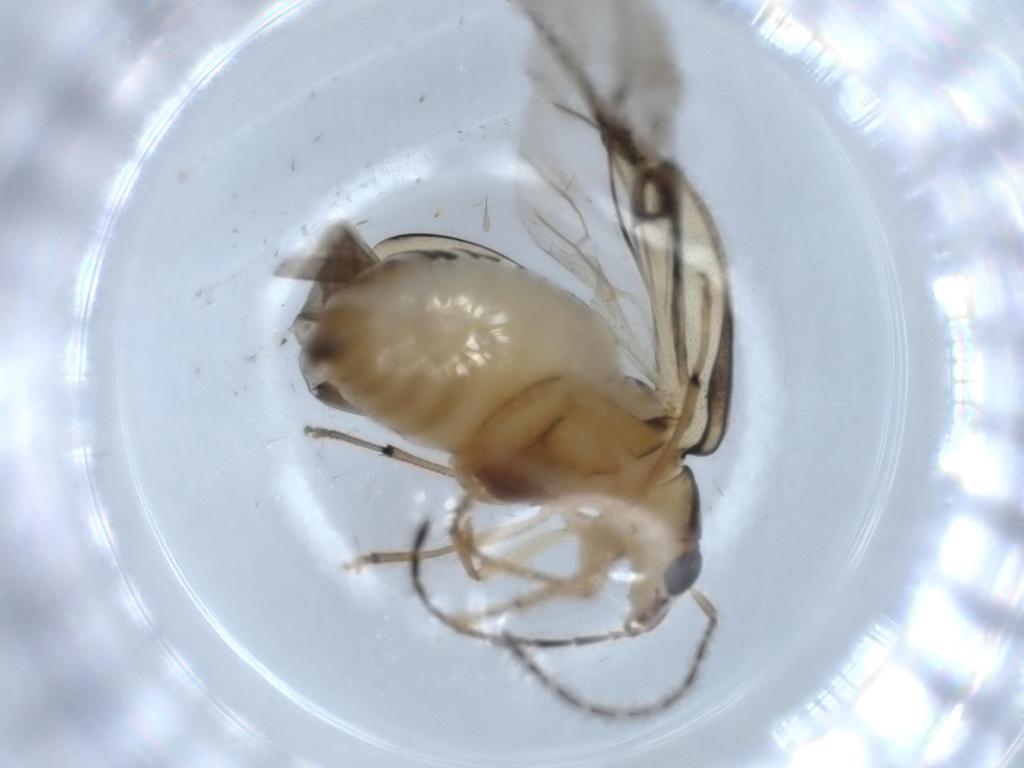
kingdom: Animalia
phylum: Arthropoda
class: Insecta
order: Coleoptera
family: Chrysomelidae
